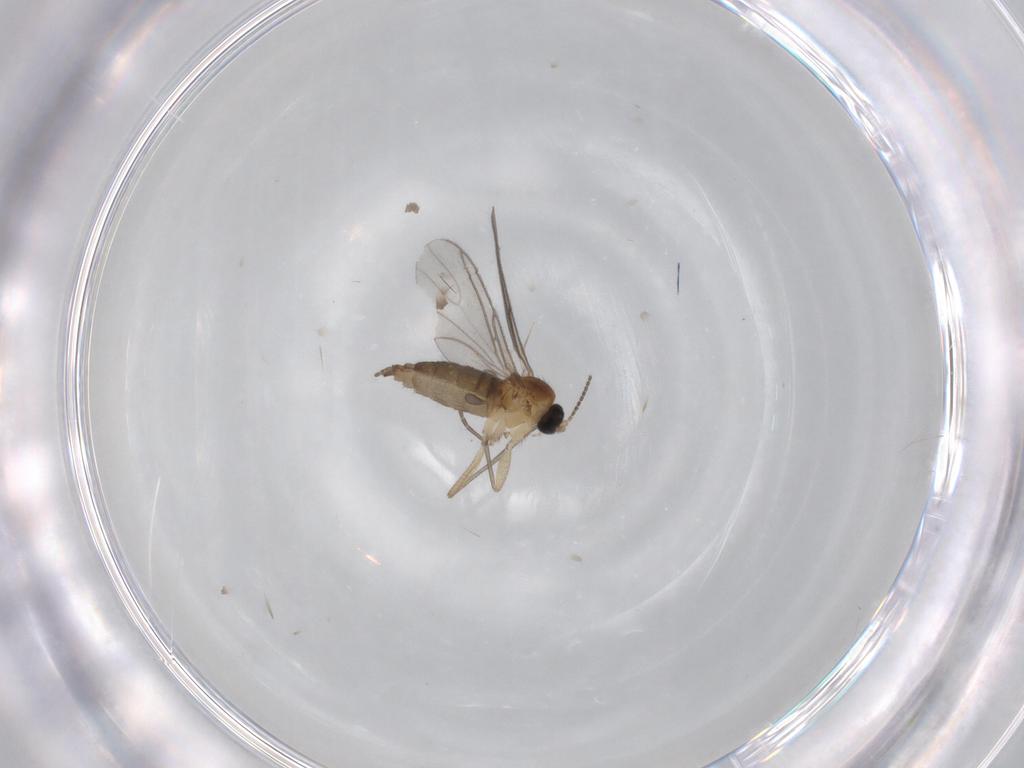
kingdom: Animalia
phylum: Arthropoda
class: Insecta
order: Diptera
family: Sciaridae
